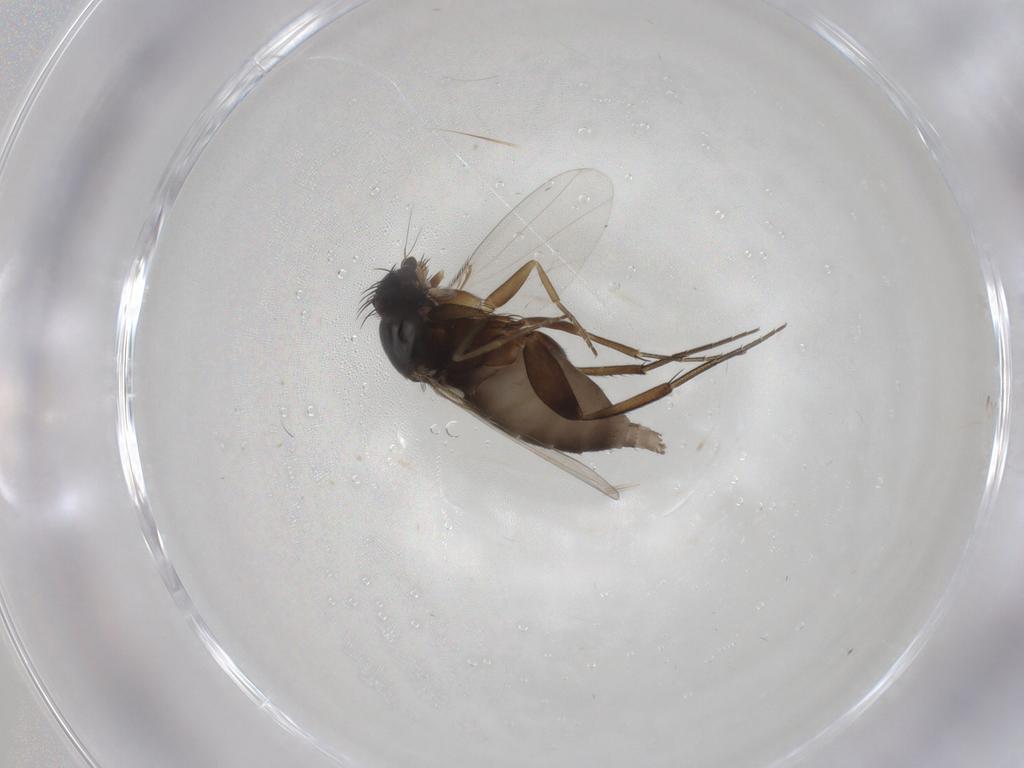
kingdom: Animalia
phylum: Arthropoda
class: Insecta
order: Diptera
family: Phoridae
